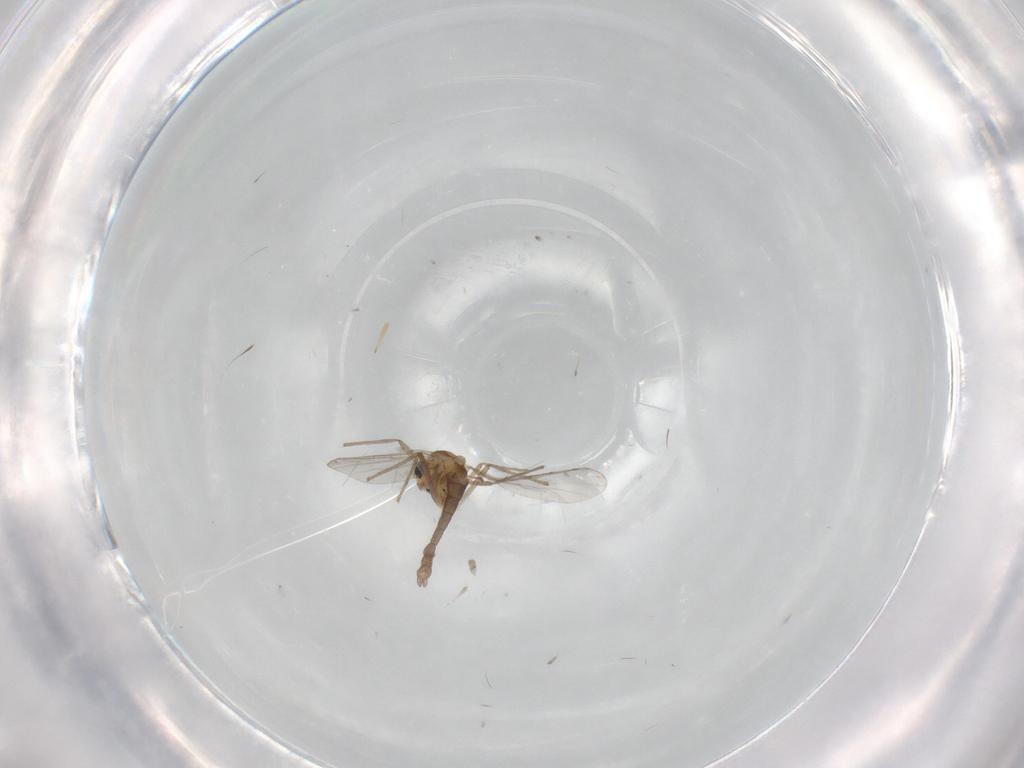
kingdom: Animalia
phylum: Arthropoda
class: Insecta
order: Diptera
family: Chironomidae
